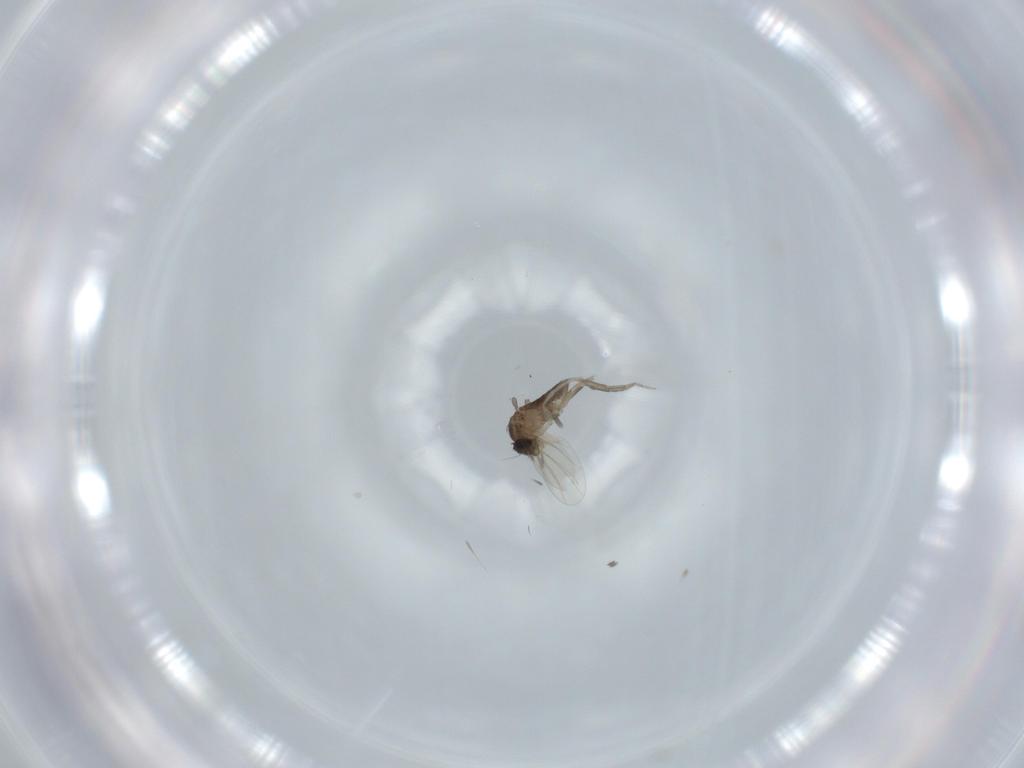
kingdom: Animalia
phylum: Arthropoda
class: Insecta
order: Diptera
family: Phoridae
